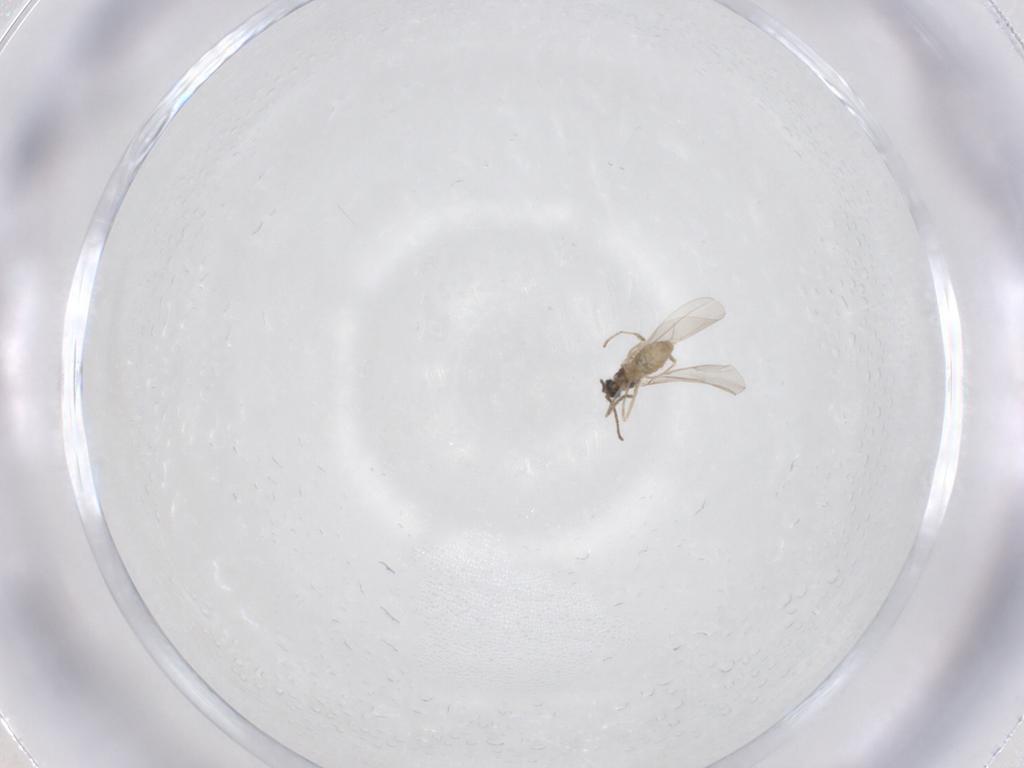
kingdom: Animalia
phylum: Arthropoda
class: Insecta
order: Diptera
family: Cecidomyiidae
